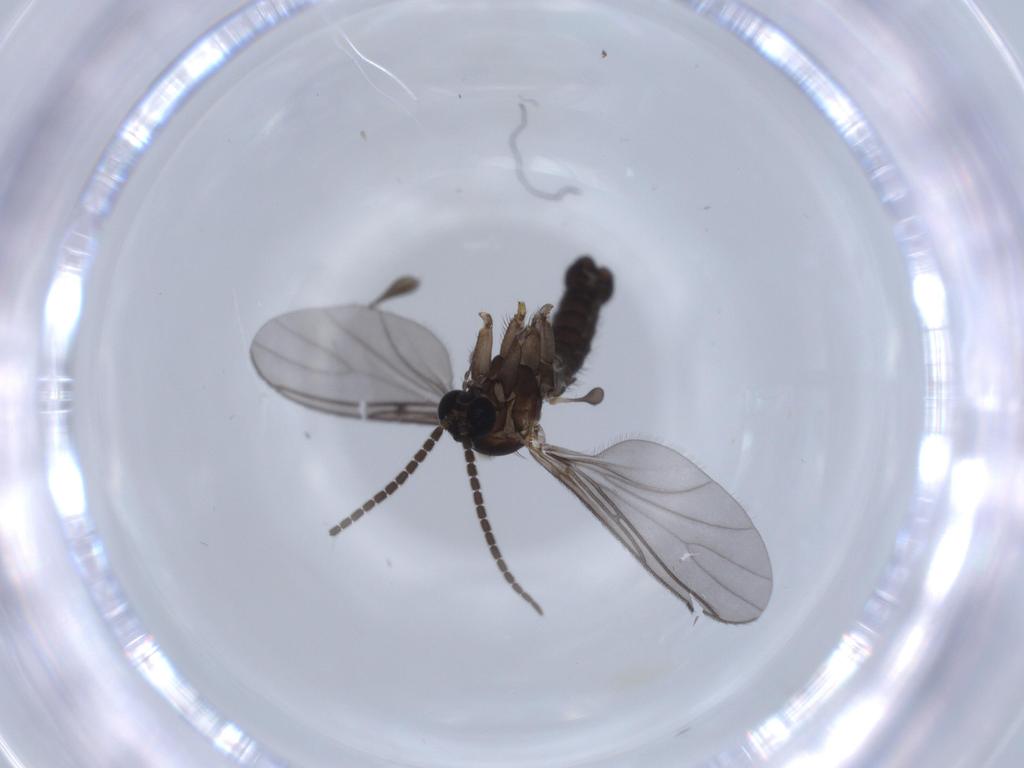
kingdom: Animalia
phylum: Arthropoda
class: Insecta
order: Diptera
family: Sciaridae
